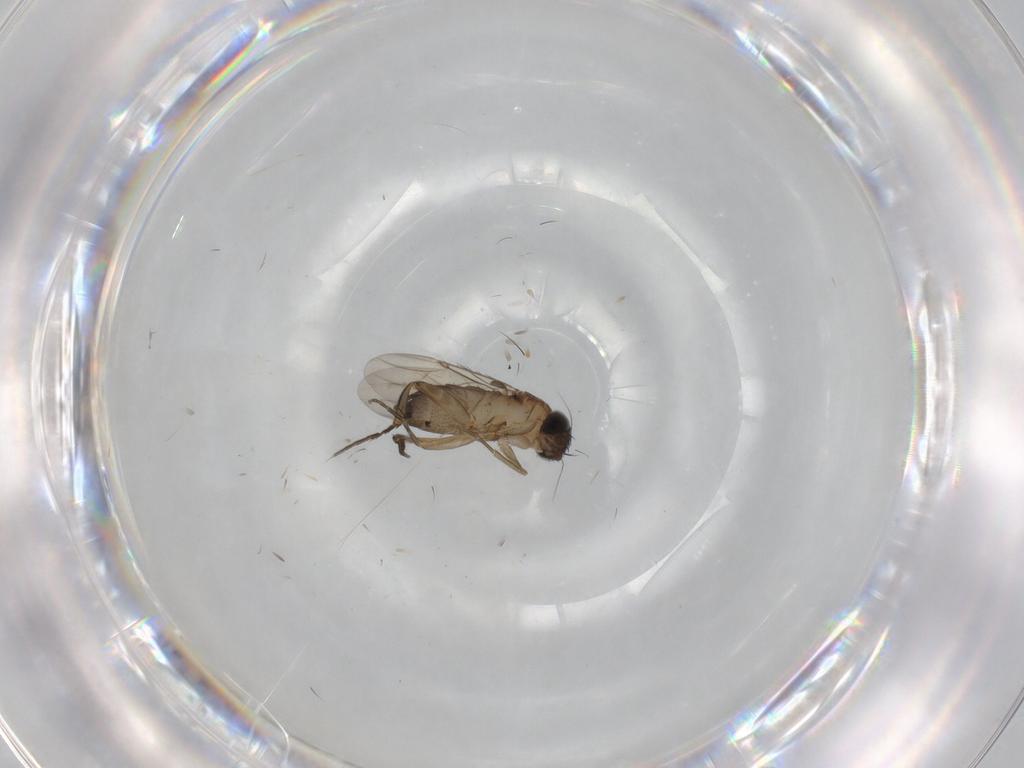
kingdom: Animalia
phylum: Arthropoda
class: Insecta
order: Diptera
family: Phoridae
